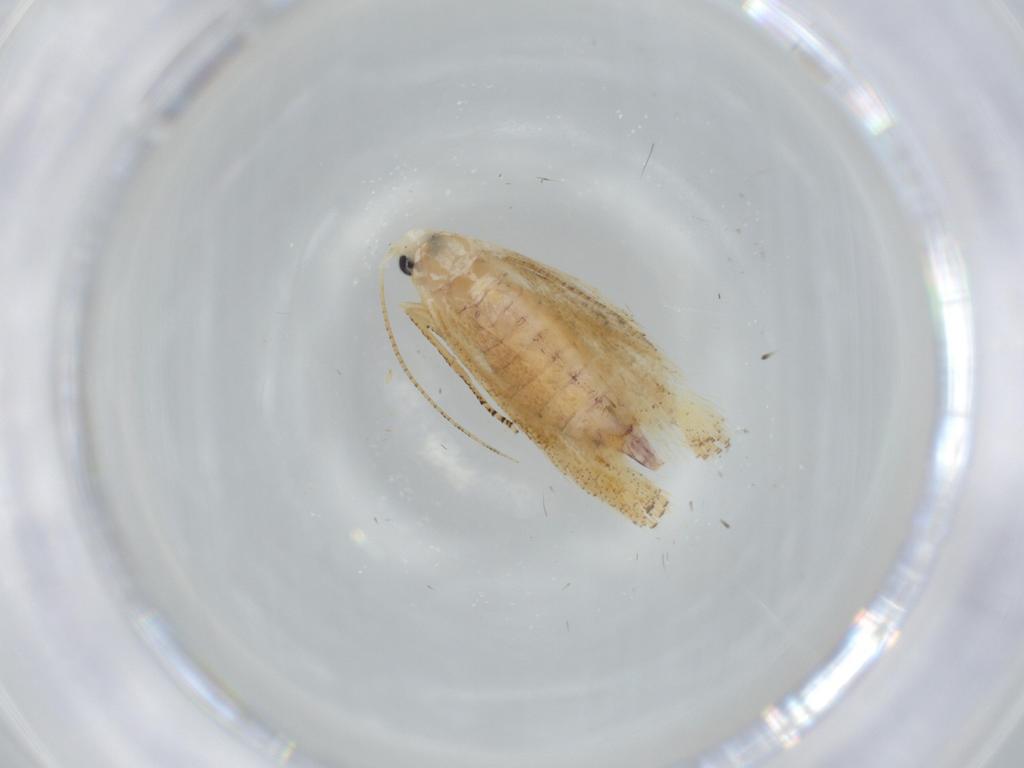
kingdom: Animalia
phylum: Arthropoda
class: Insecta
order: Lepidoptera
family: Bucculatricidae
